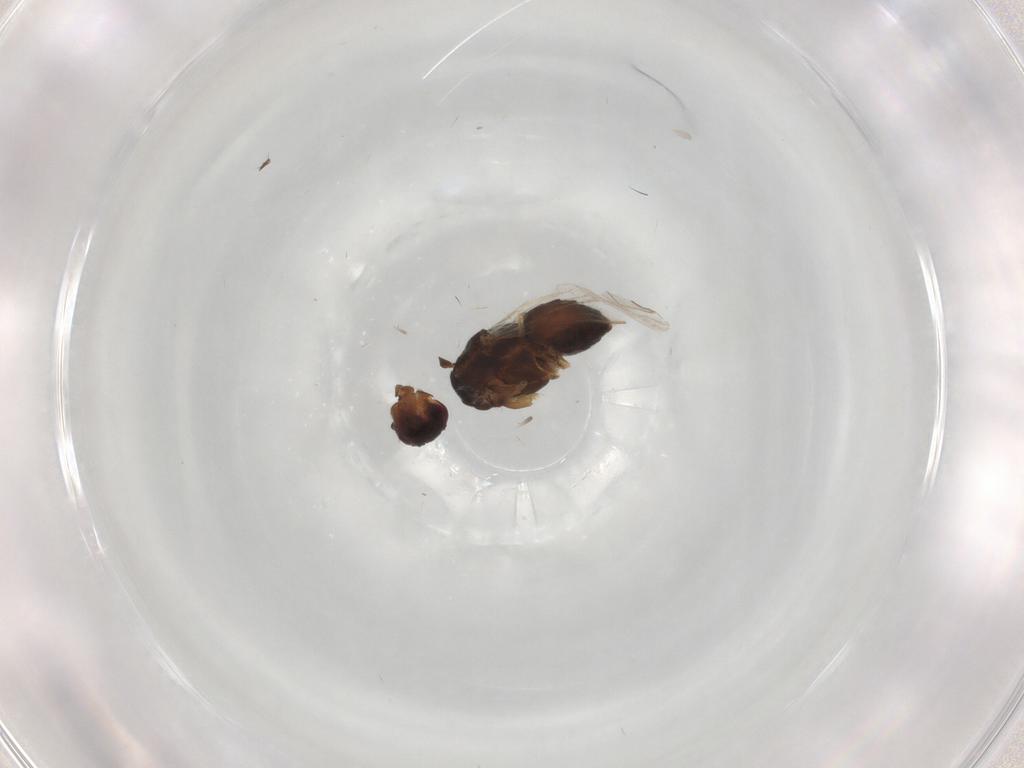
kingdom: Animalia
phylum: Arthropoda
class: Insecta
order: Diptera
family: Sphaeroceridae
